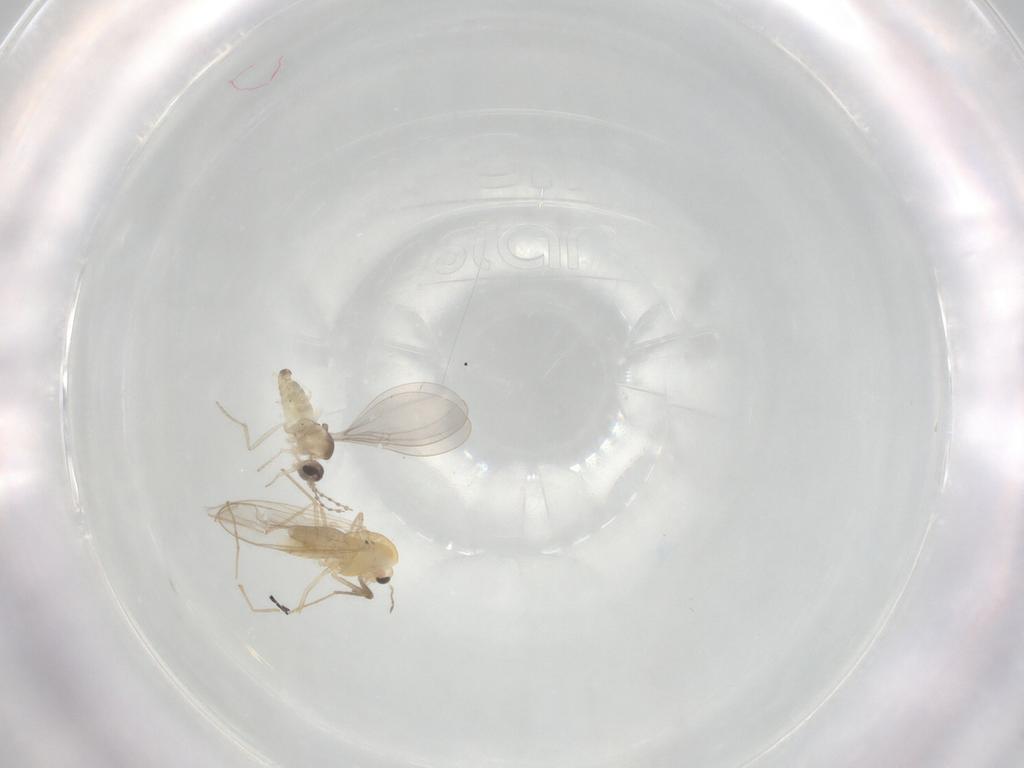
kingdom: Animalia
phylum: Arthropoda
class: Insecta
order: Diptera
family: Chironomidae
